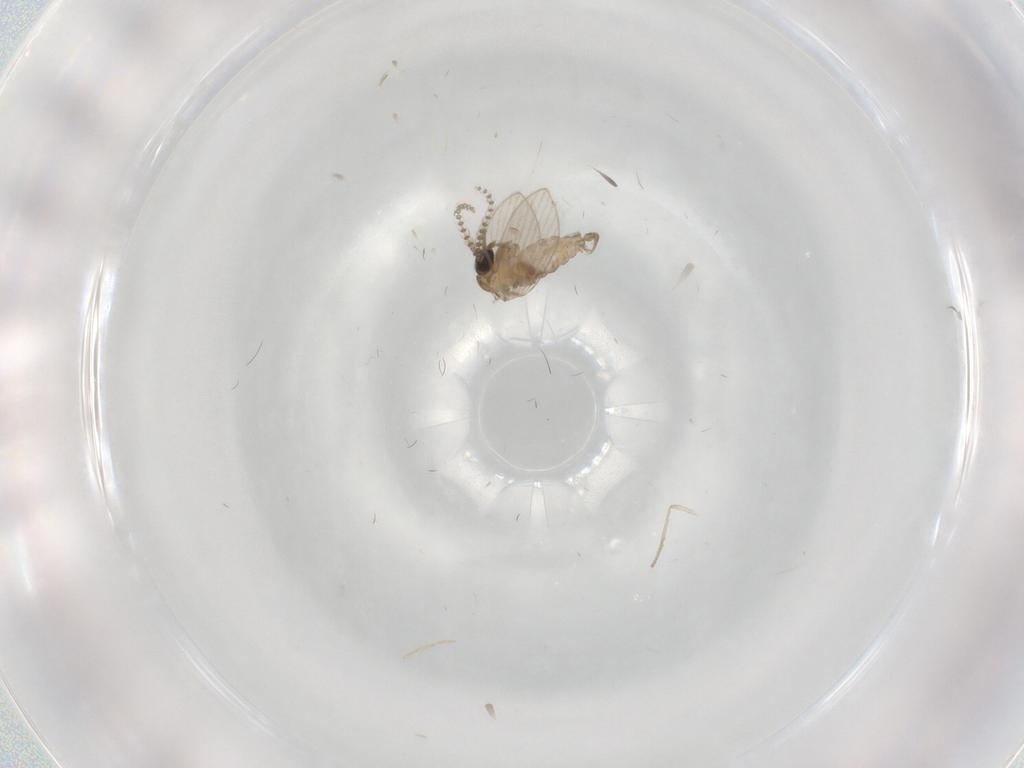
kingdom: Animalia
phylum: Arthropoda
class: Insecta
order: Diptera
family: Psychodidae
